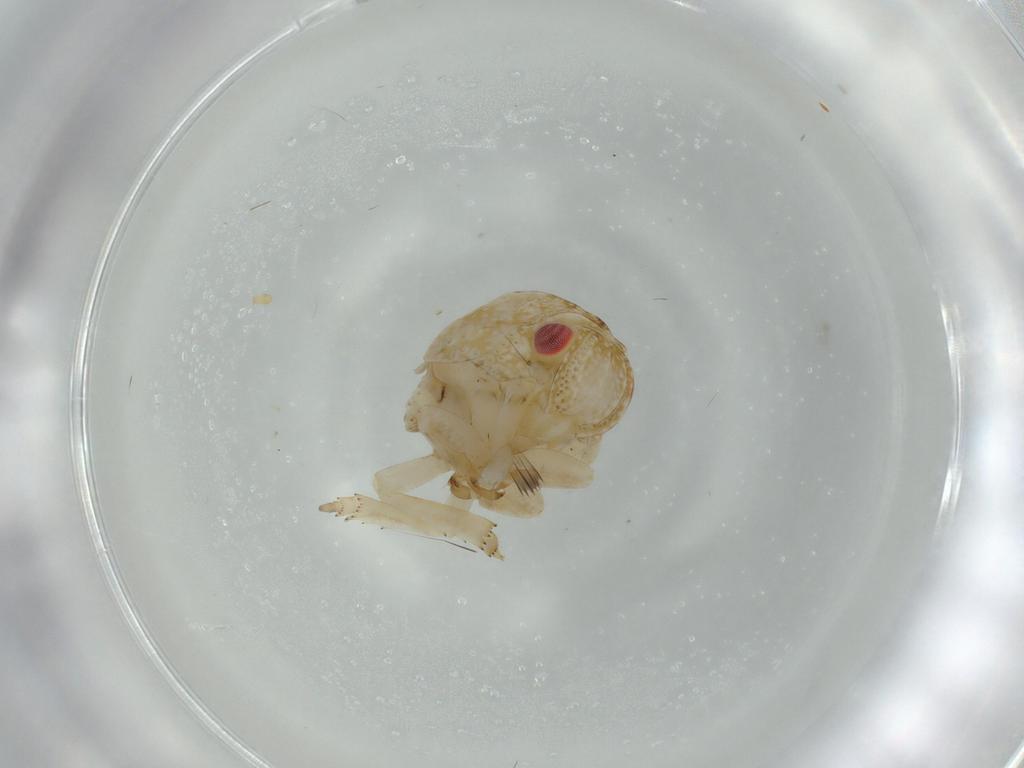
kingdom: Animalia
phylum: Arthropoda
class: Insecta
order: Hemiptera
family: Acanaloniidae
